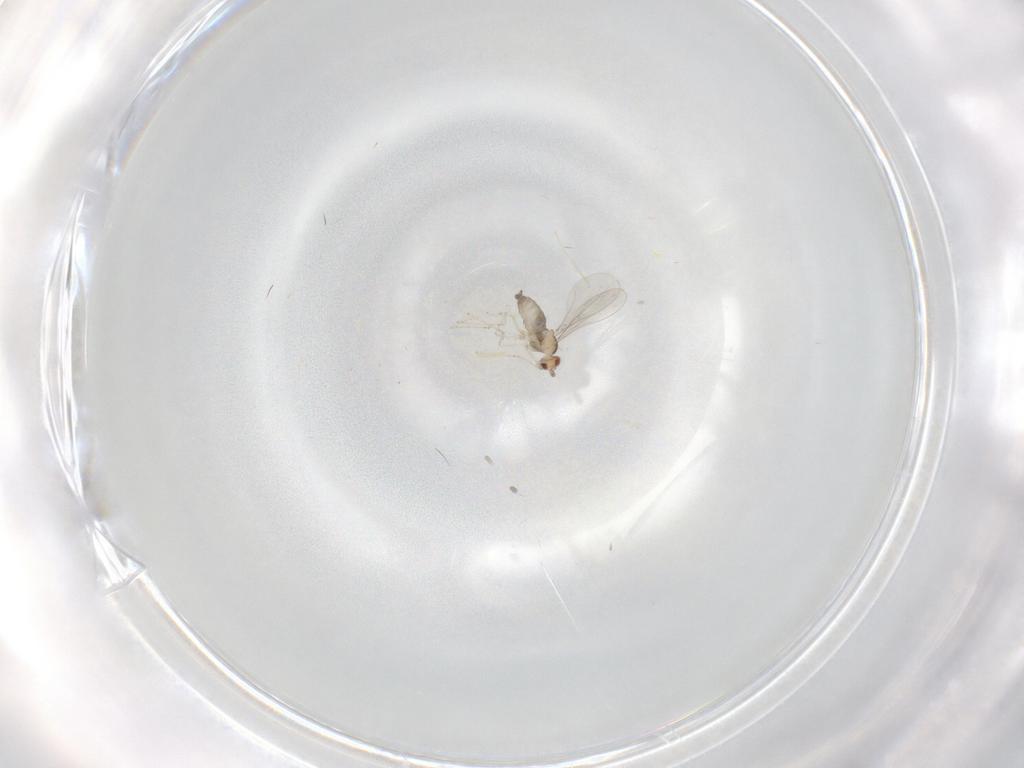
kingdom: Animalia
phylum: Arthropoda
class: Insecta
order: Diptera
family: Cecidomyiidae
